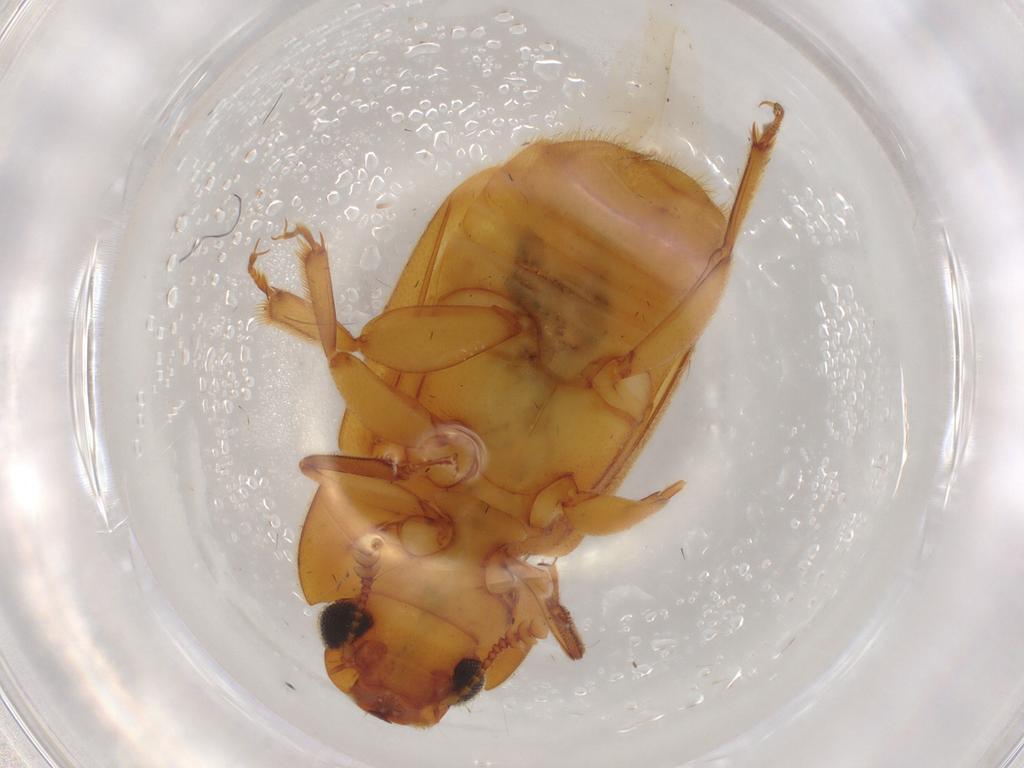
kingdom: Animalia
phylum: Arthropoda
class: Insecta
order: Coleoptera
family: Nitidulidae
